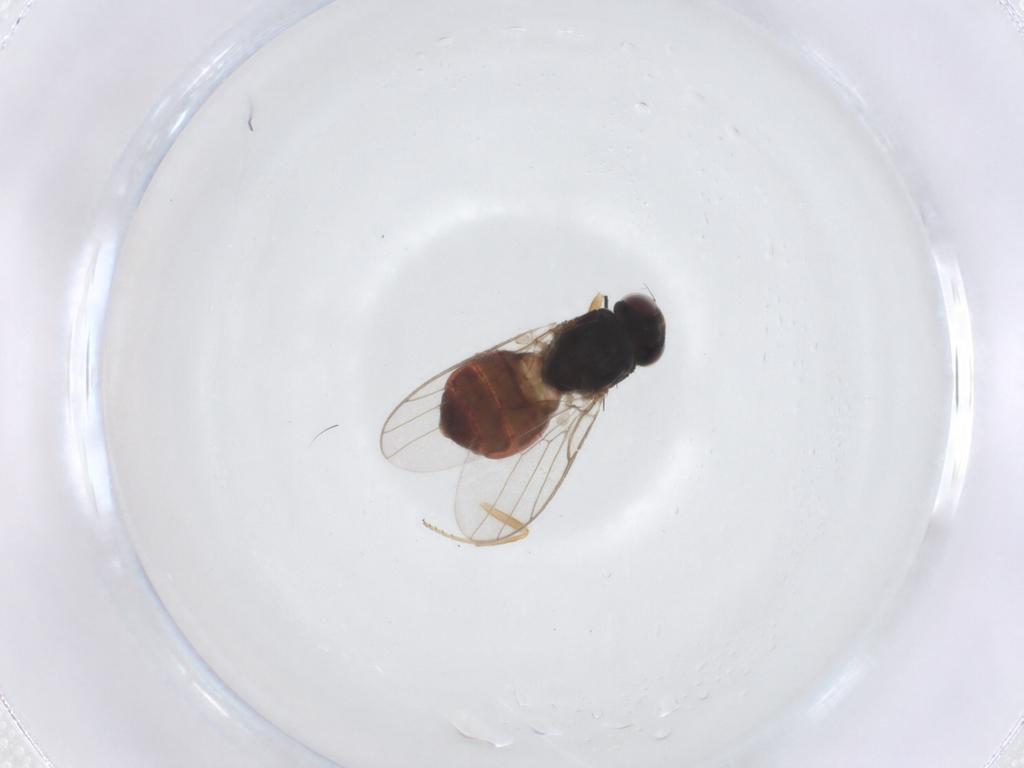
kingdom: Animalia
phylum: Arthropoda
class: Insecta
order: Diptera
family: Chloropidae
